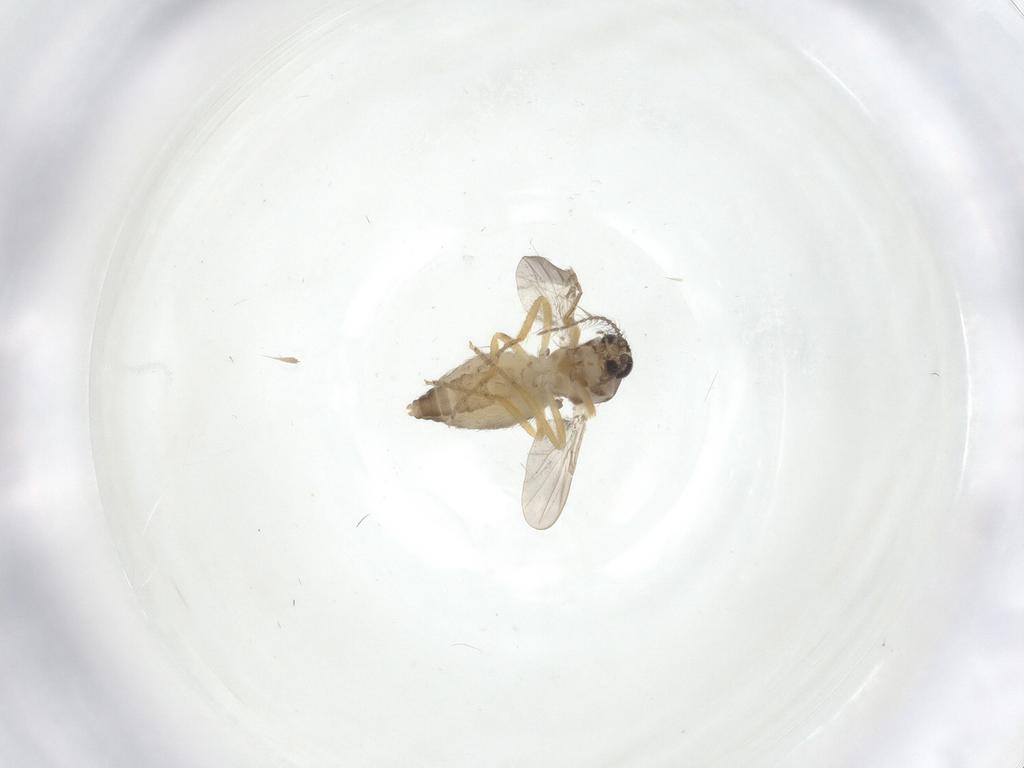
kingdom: Animalia
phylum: Arthropoda
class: Insecta
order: Diptera
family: Ceratopogonidae
